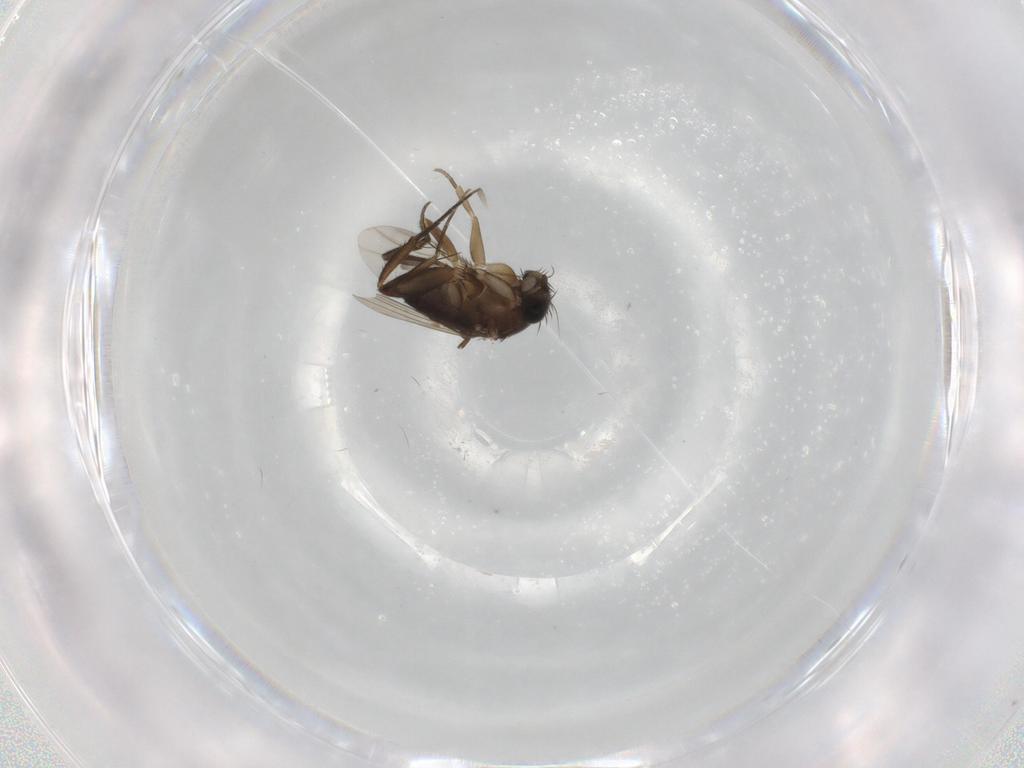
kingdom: Animalia
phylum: Arthropoda
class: Insecta
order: Diptera
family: Phoridae
